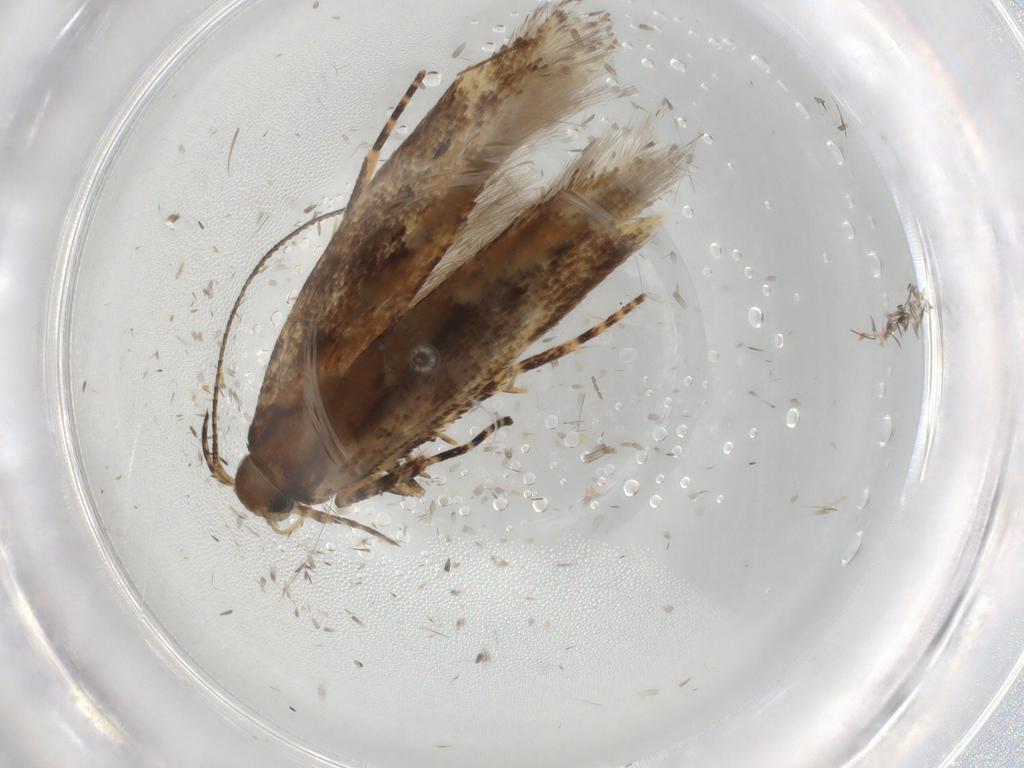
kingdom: Animalia
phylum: Arthropoda
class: Insecta
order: Lepidoptera
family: Gelechiidae
